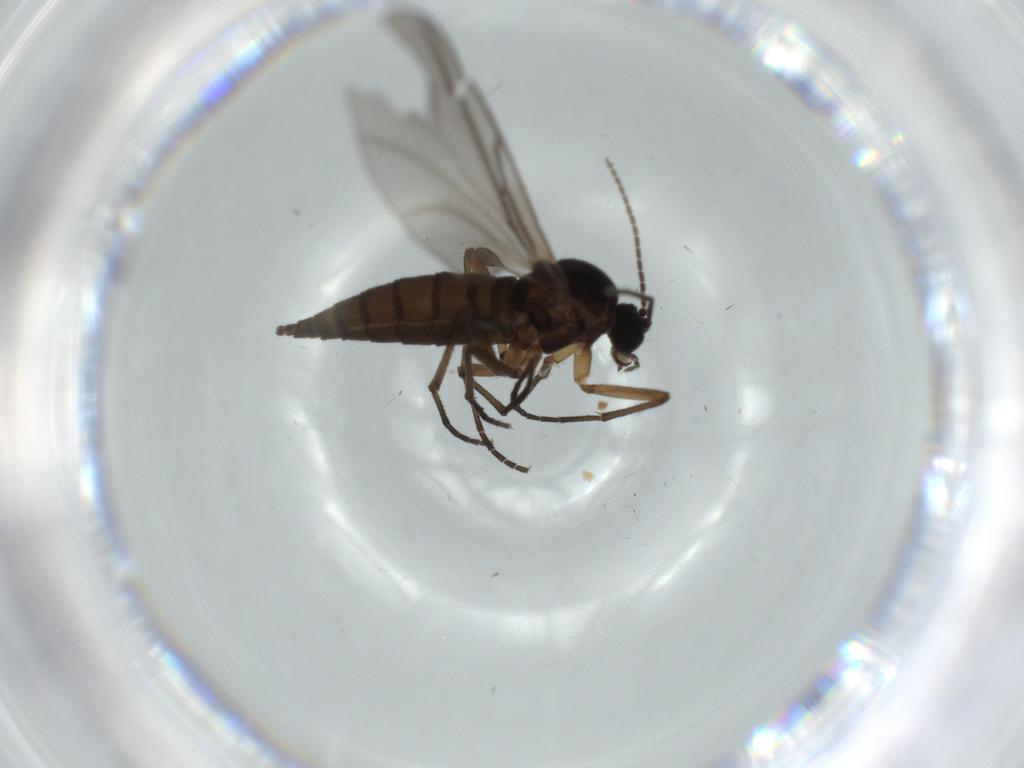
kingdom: Animalia
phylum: Arthropoda
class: Insecta
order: Diptera
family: Sciaridae
